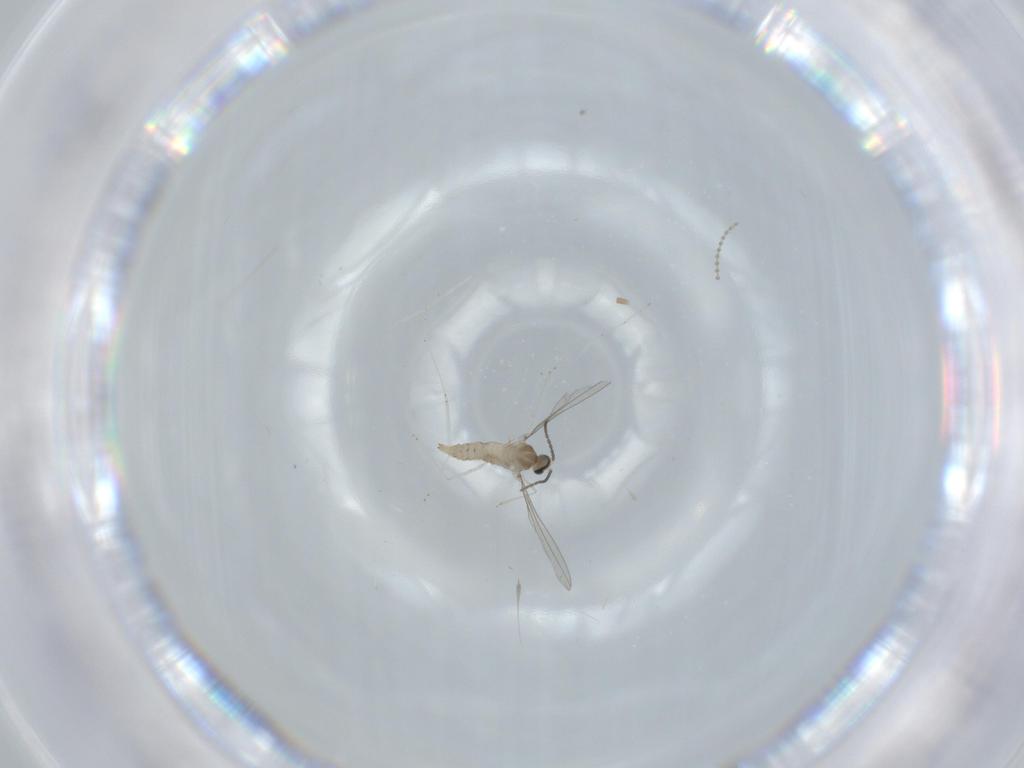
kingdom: Animalia
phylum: Arthropoda
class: Insecta
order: Diptera
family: Cecidomyiidae
